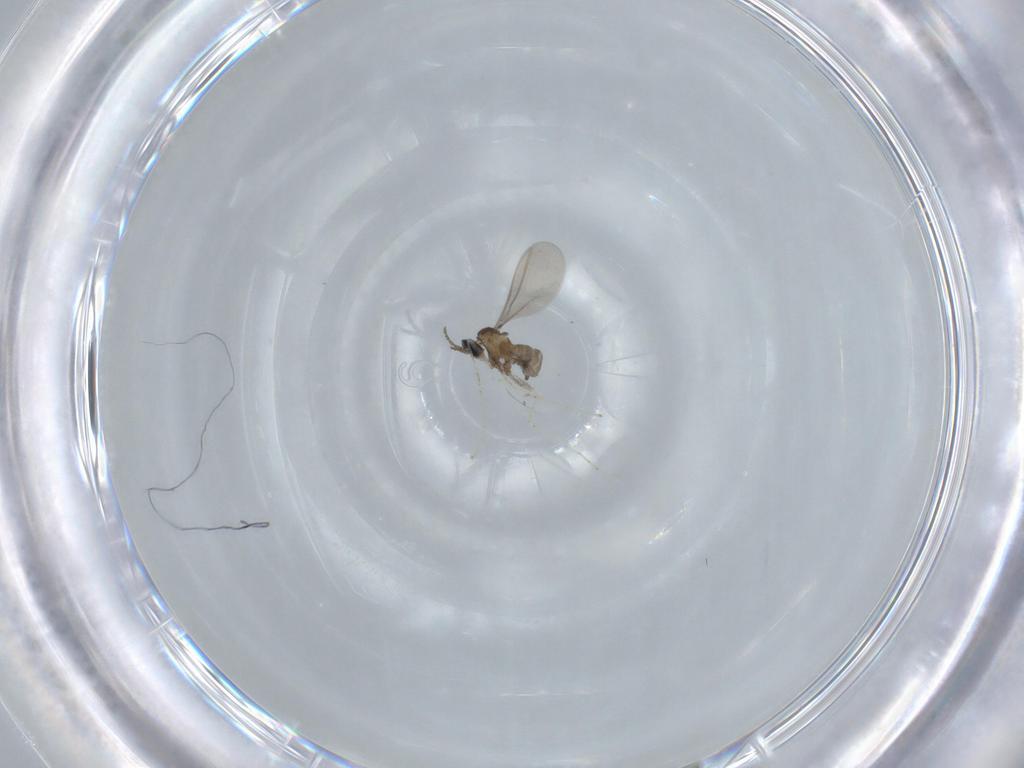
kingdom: Animalia
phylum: Arthropoda
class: Insecta
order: Diptera
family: Cecidomyiidae
